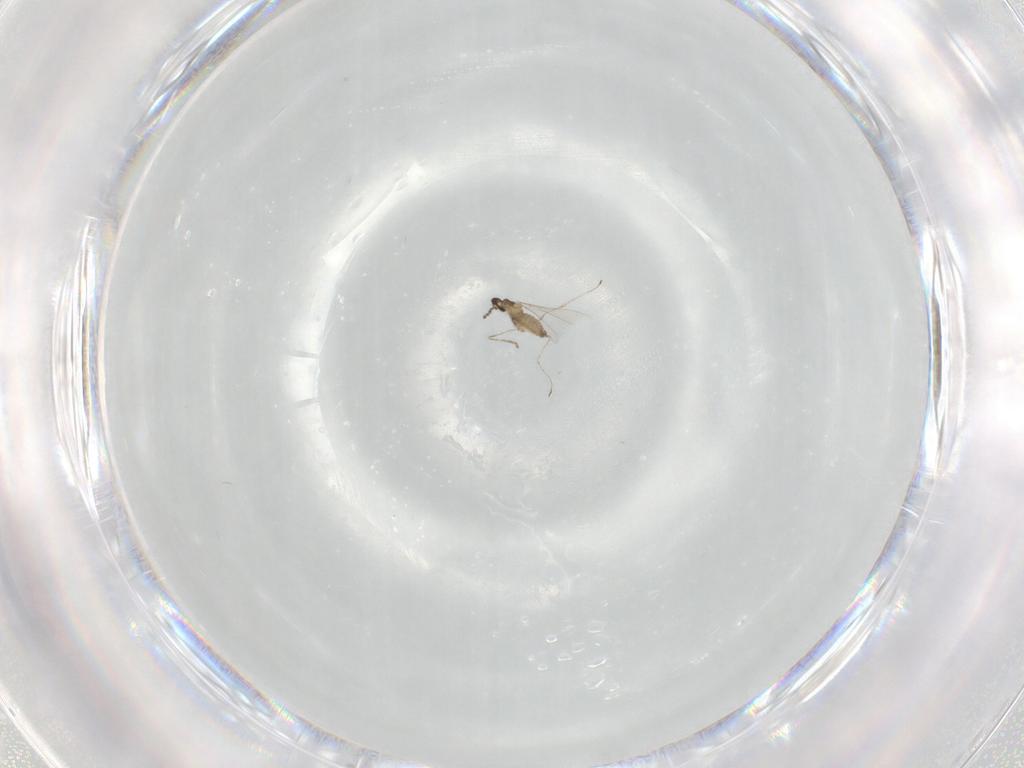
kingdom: Animalia
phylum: Arthropoda
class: Insecta
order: Diptera
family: Cecidomyiidae
